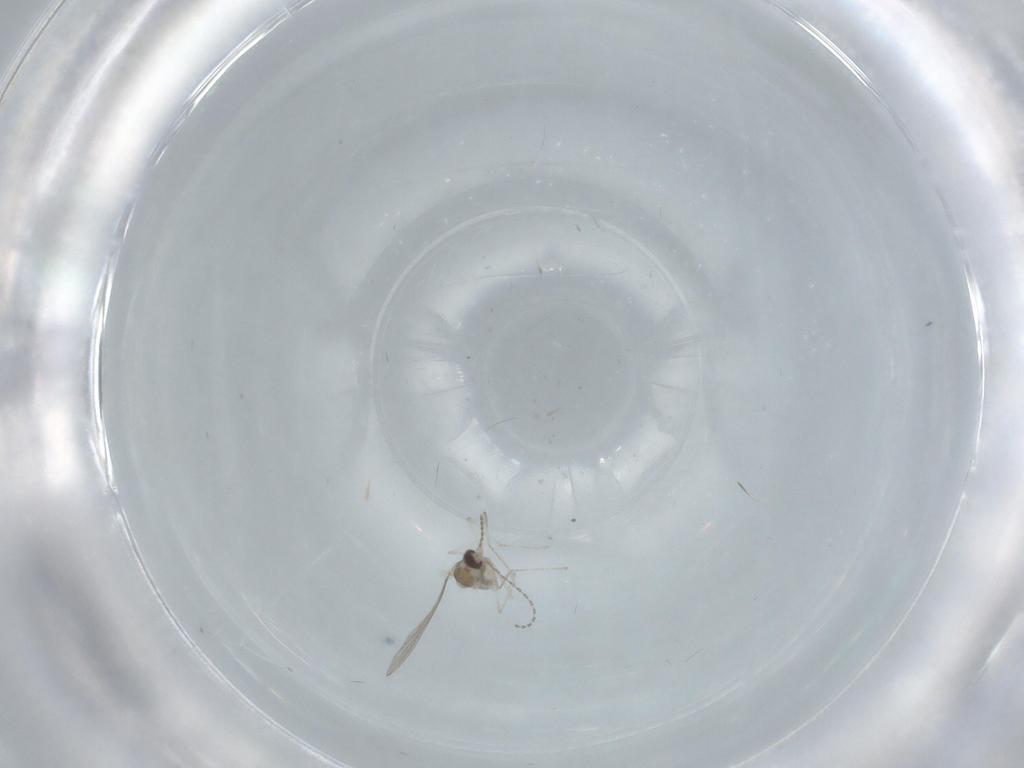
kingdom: Animalia
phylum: Arthropoda
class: Insecta
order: Diptera
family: Cecidomyiidae
